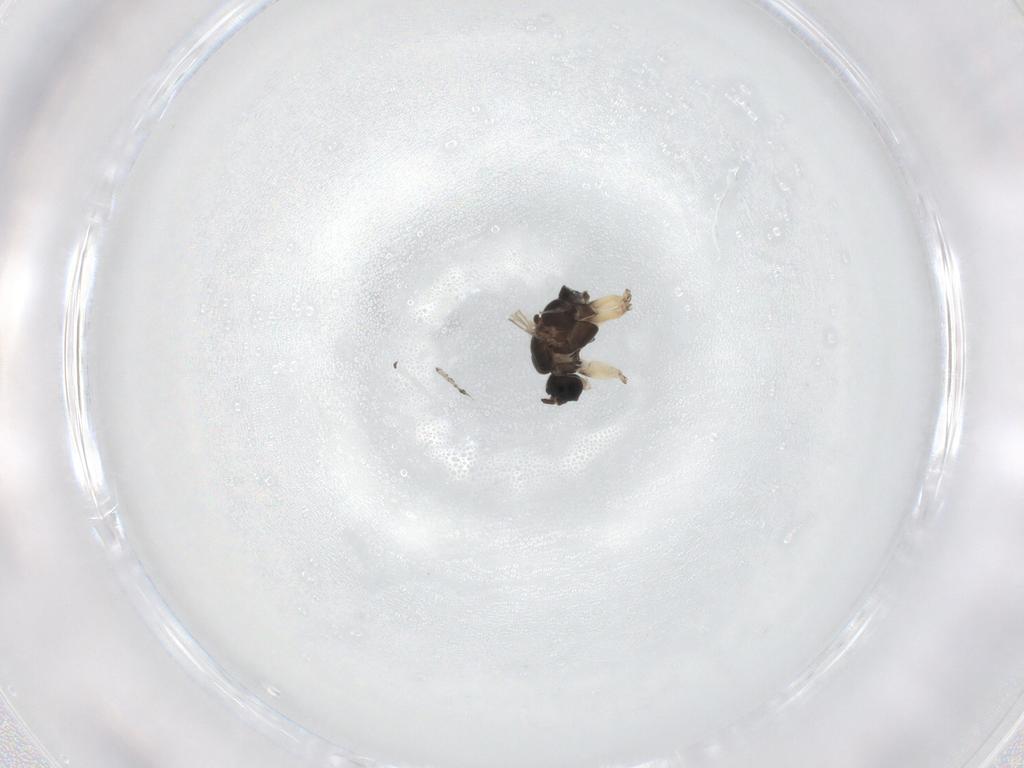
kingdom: Animalia
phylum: Arthropoda
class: Insecta
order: Diptera
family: Sciaridae
